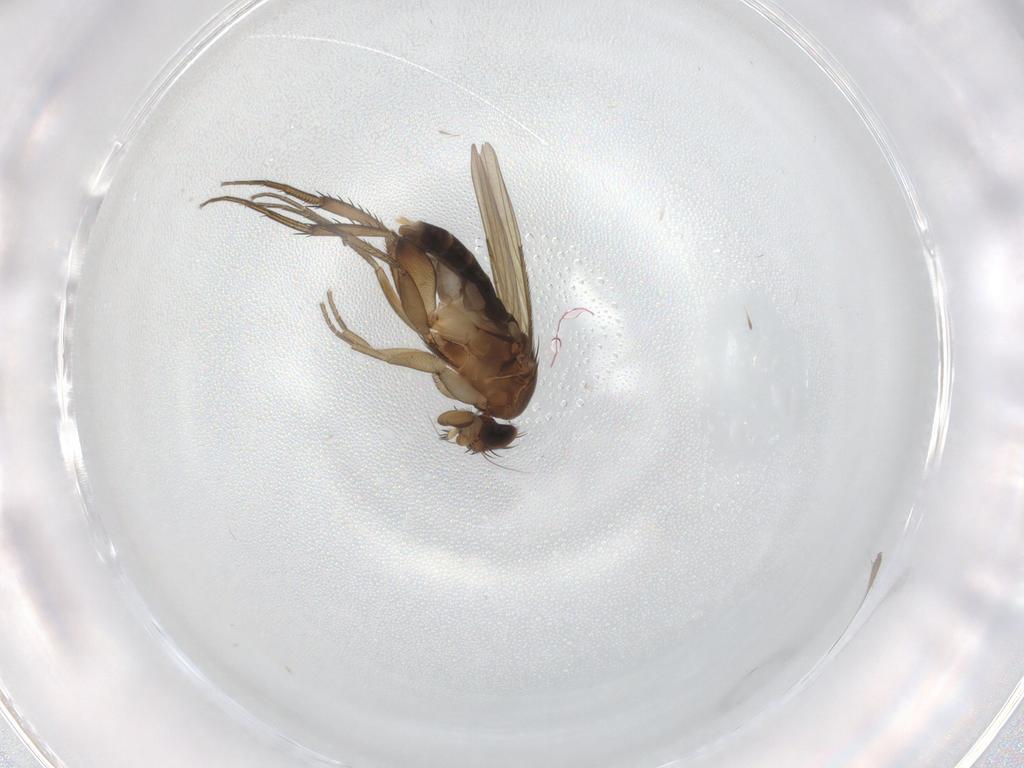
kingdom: Animalia
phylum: Arthropoda
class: Insecta
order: Diptera
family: Phoridae
